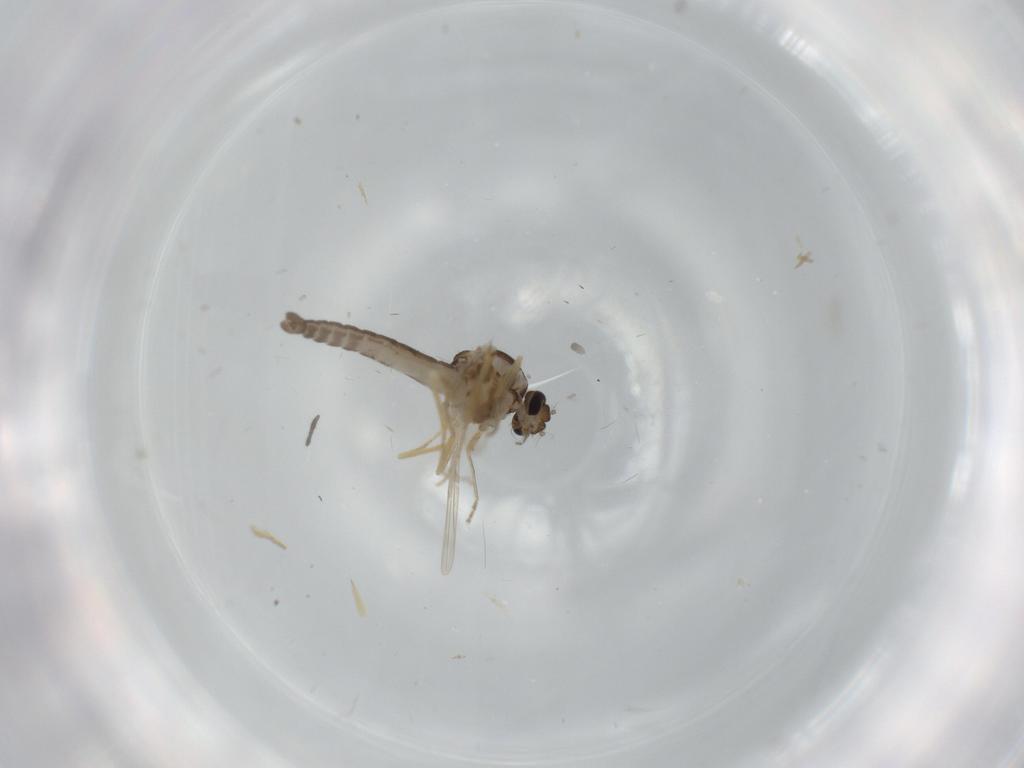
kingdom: Animalia
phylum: Arthropoda
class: Insecta
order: Diptera
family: Ceratopogonidae
